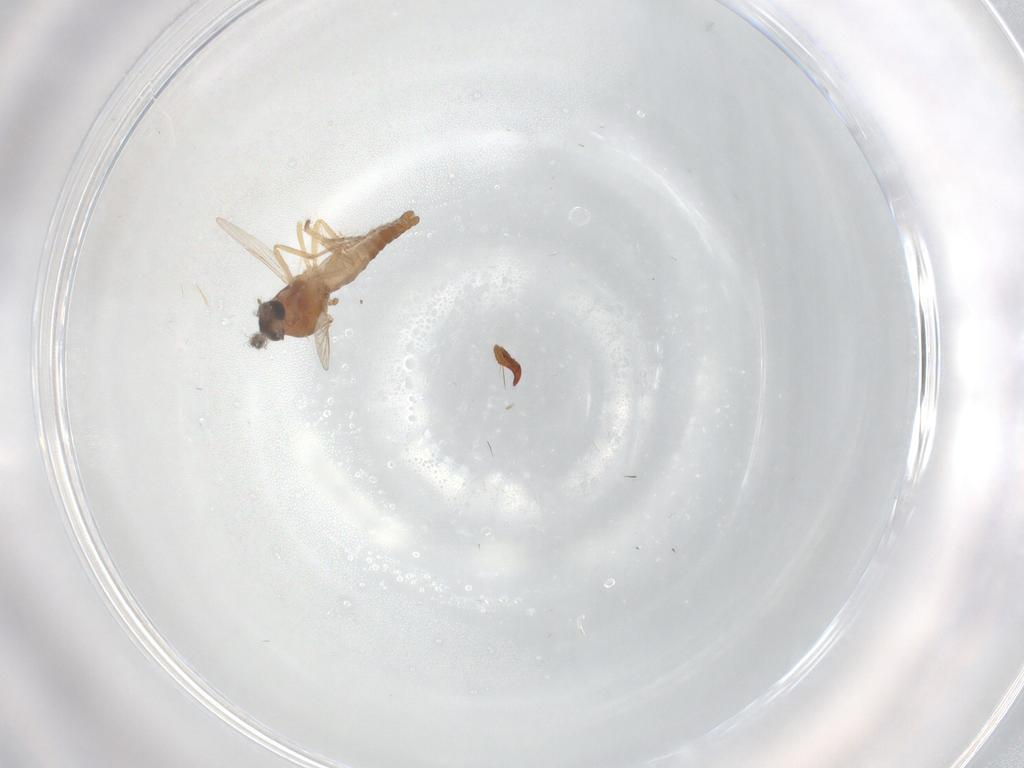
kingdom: Animalia
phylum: Arthropoda
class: Insecta
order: Diptera
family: Ceratopogonidae
